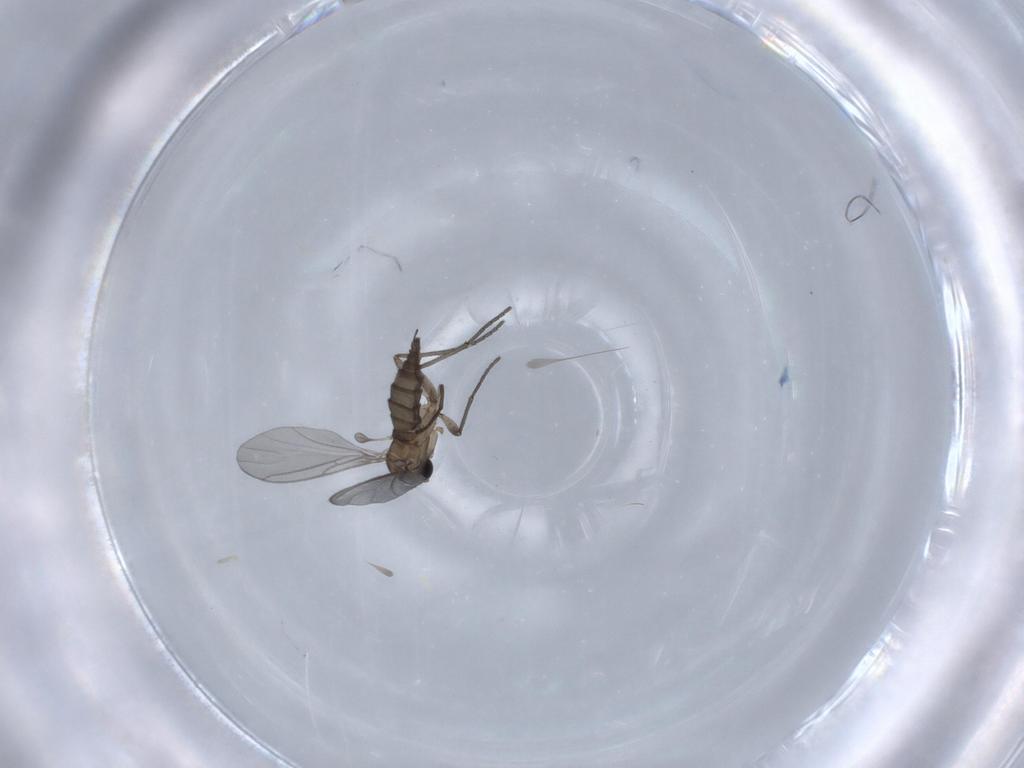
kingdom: Animalia
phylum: Arthropoda
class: Insecta
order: Diptera
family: Cecidomyiidae
